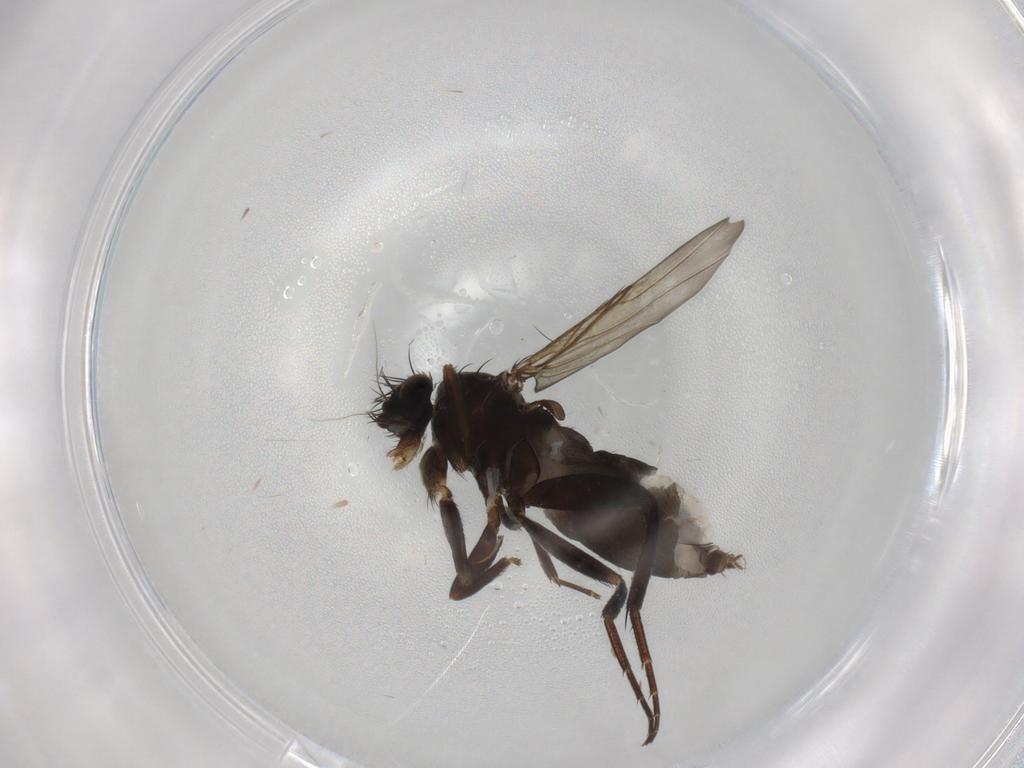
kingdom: Animalia
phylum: Arthropoda
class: Insecta
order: Diptera
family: Phoridae
